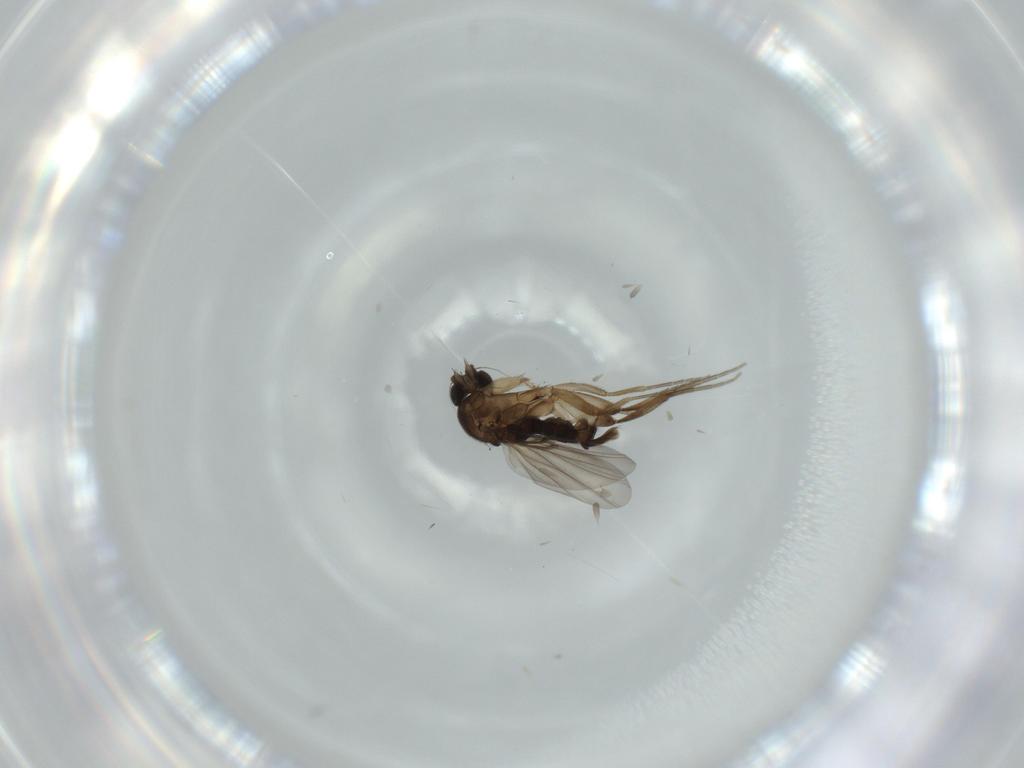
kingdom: Animalia
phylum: Arthropoda
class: Insecta
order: Diptera
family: Phoridae
